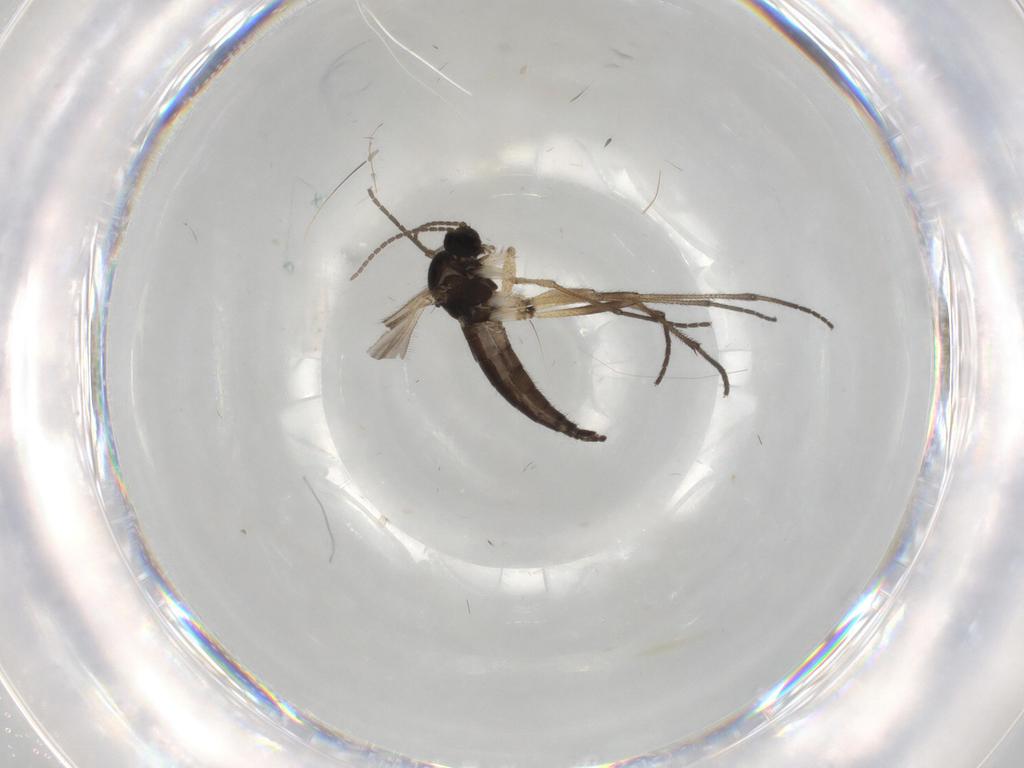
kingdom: Animalia
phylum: Arthropoda
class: Insecta
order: Diptera
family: Sciaridae
